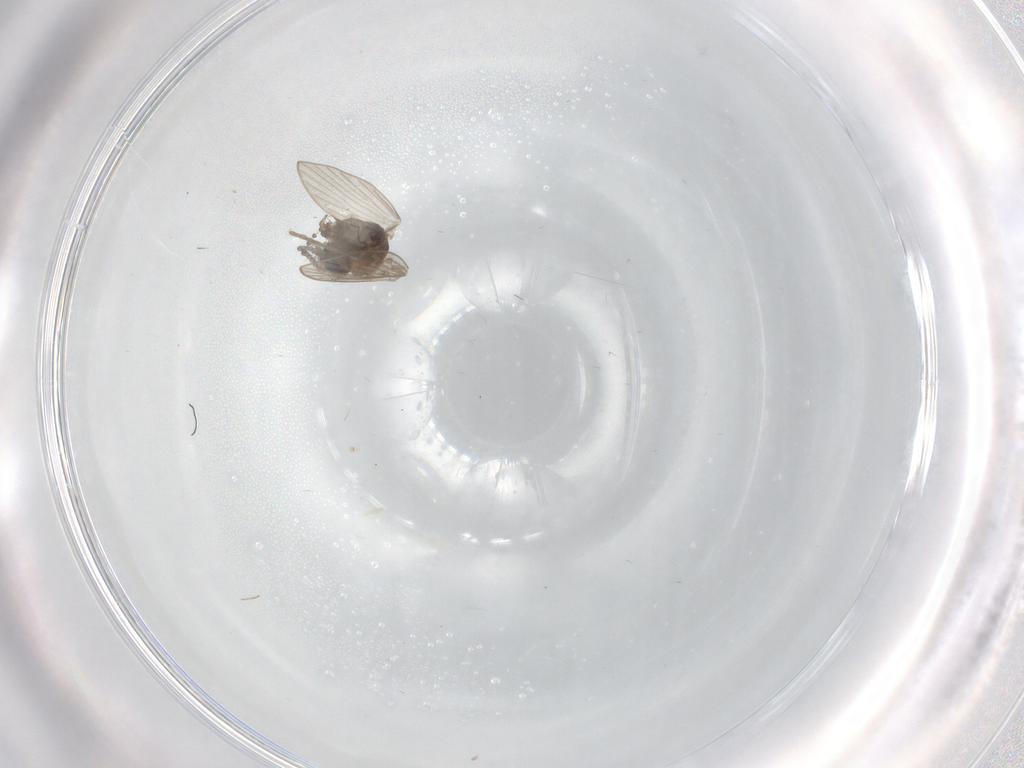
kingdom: Animalia
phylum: Arthropoda
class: Insecta
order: Diptera
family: Psychodidae
